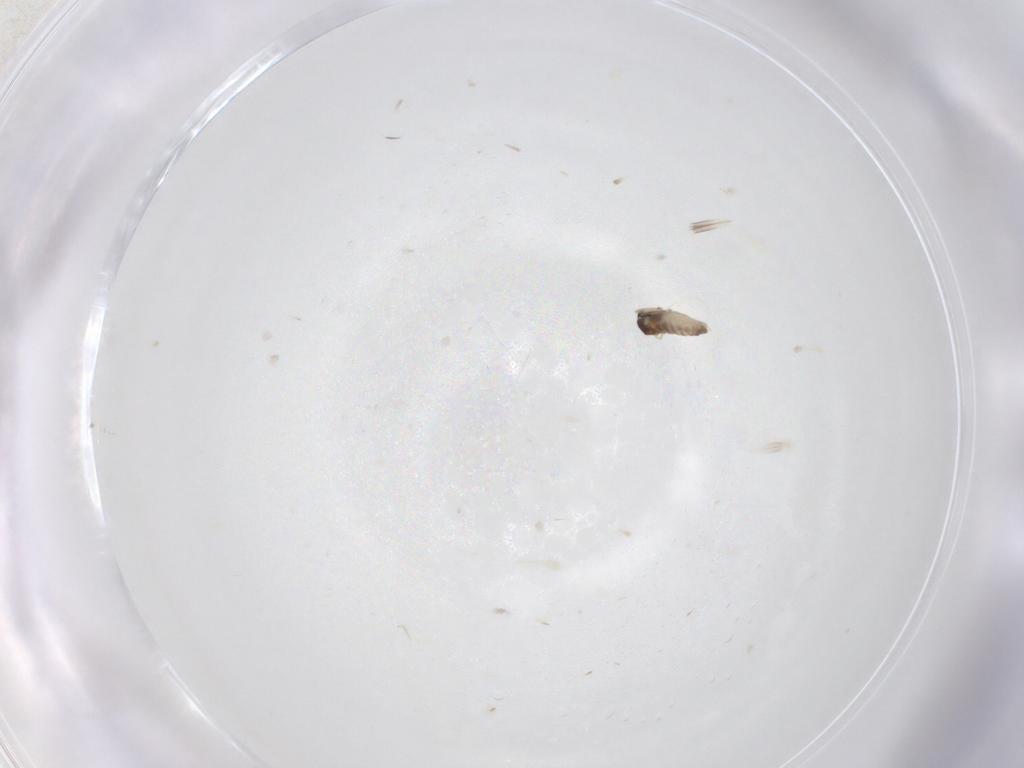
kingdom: Animalia
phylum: Arthropoda
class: Insecta
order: Diptera
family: Cecidomyiidae
